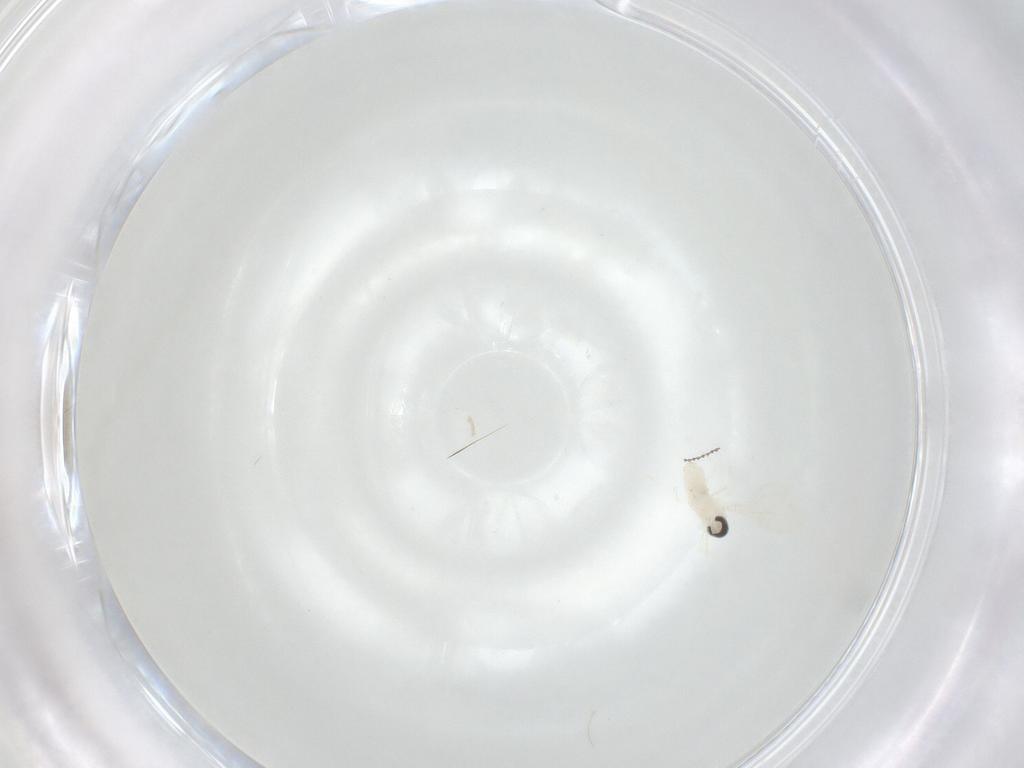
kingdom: Animalia
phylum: Arthropoda
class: Insecta
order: Diptera
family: Cecidomyiidae
